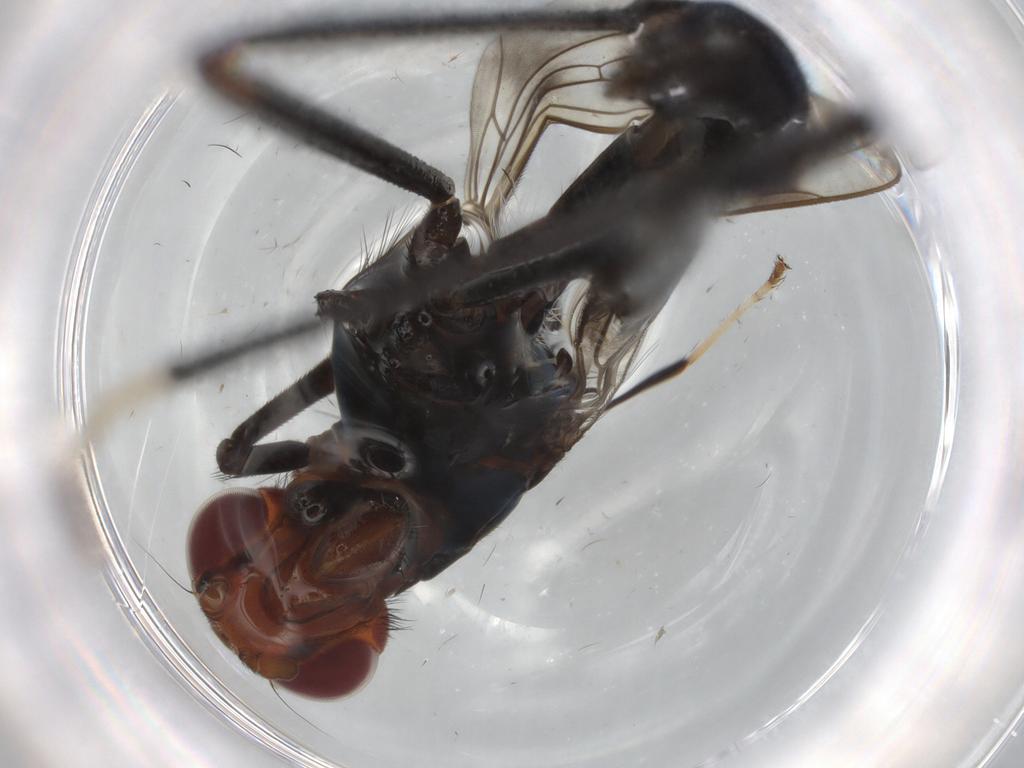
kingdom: Animalia
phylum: Arthropoda
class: Insecta
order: Diptera
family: Cecidomyiidae
